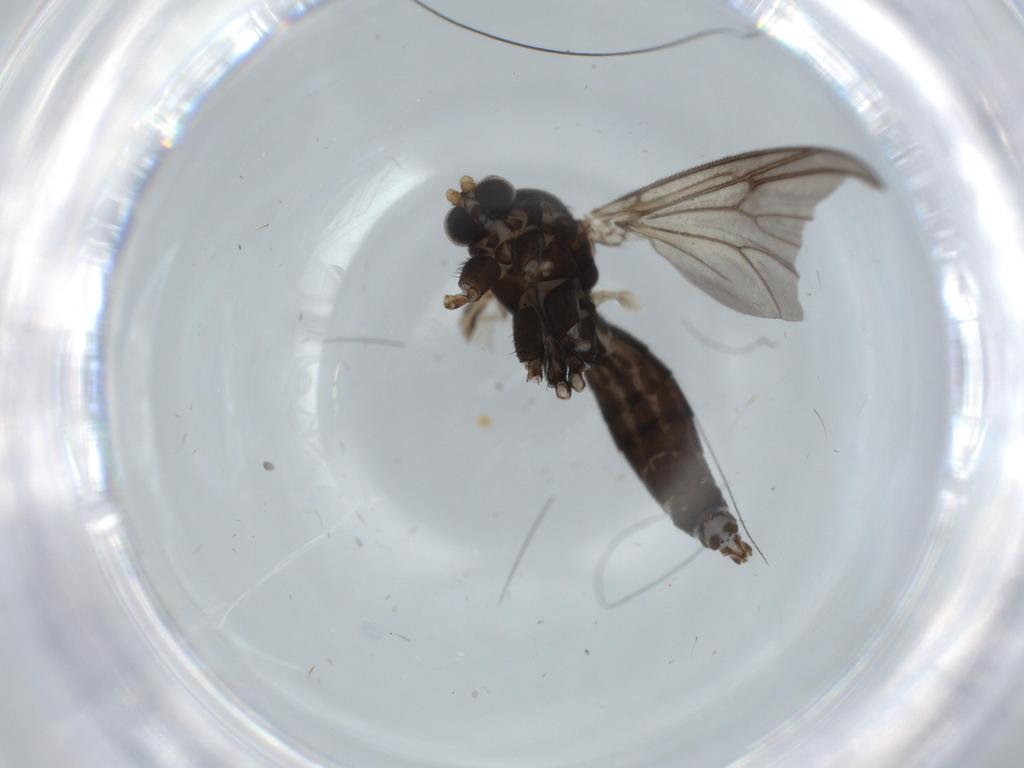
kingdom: Animalia
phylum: Arthropoda
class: Insecta
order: Diptera
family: Mycetophilidae
